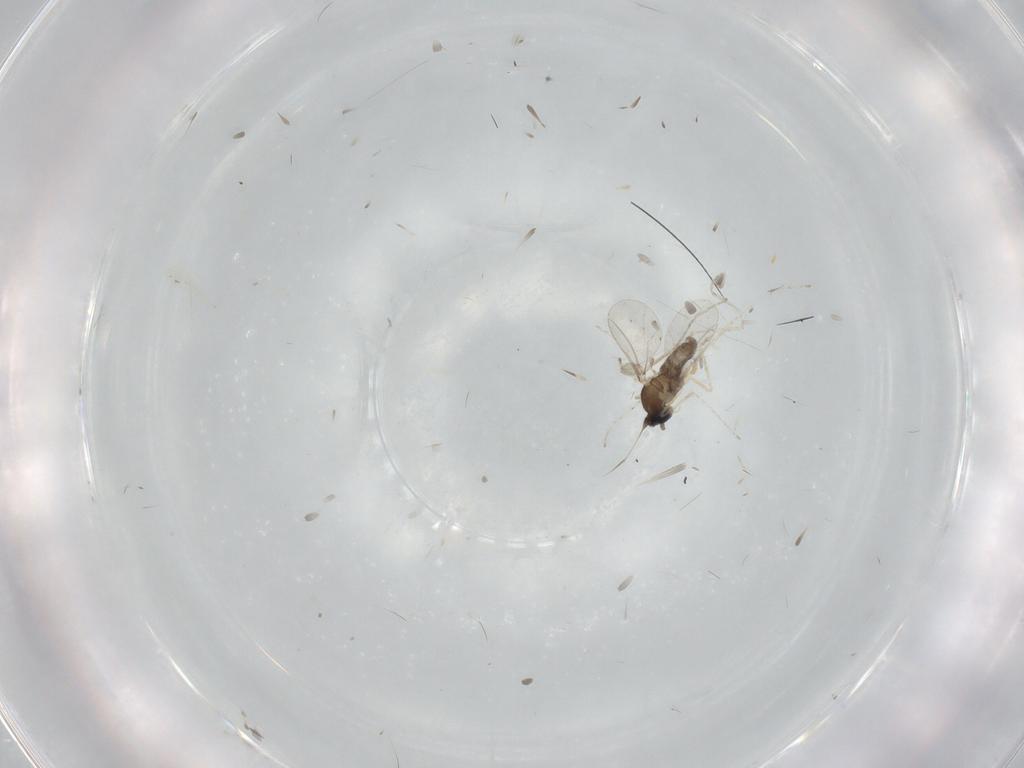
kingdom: Animalia
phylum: Arthropoda
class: Insecta
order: Diptera
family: Cecidomyiidae
